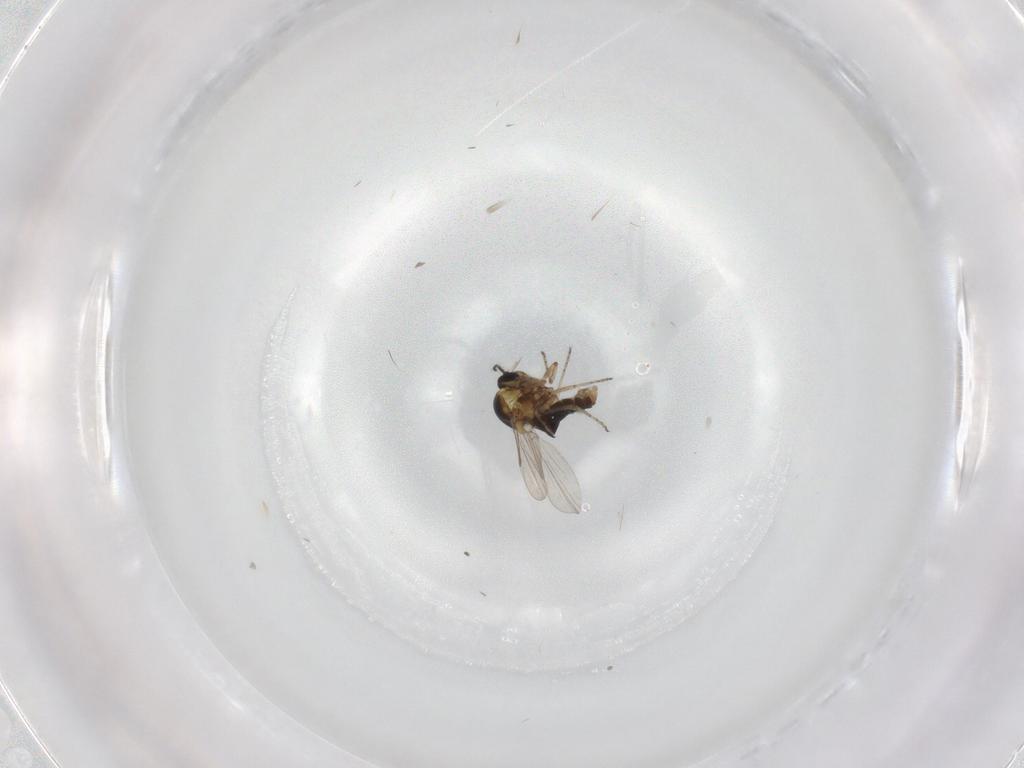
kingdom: Animalia
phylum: Arthropoda
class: Insecta
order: Diptera
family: Ceratopogonidae
